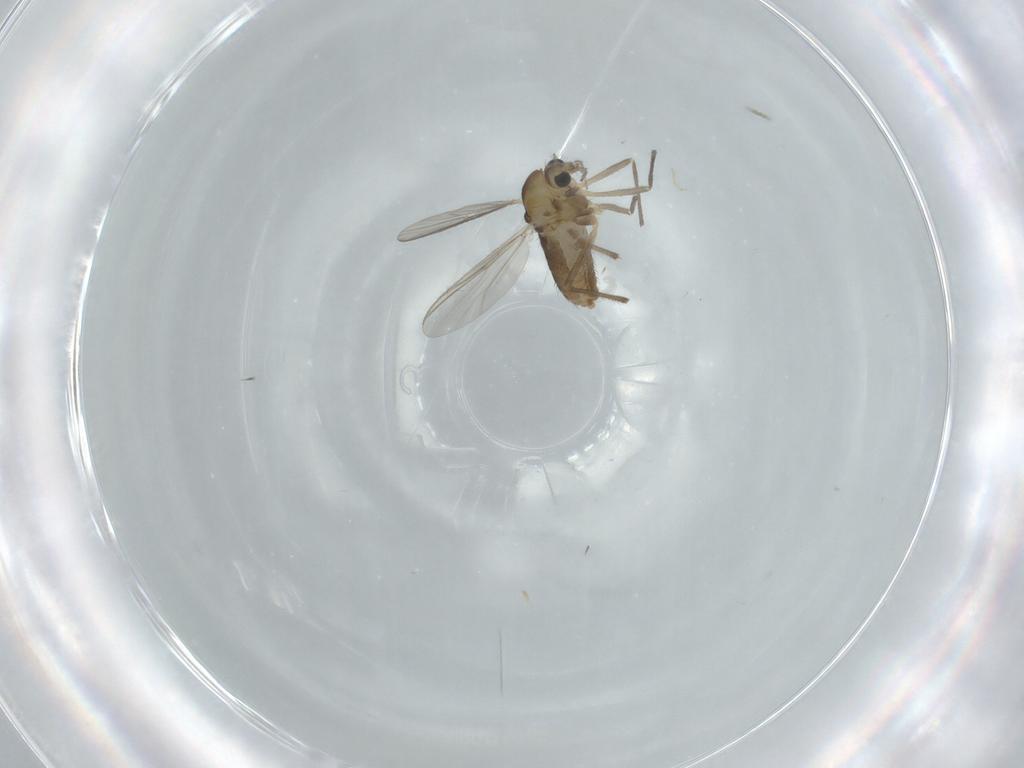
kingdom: Animalia
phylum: Arthropoda
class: Insecta
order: Diptera
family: Chironomidae
